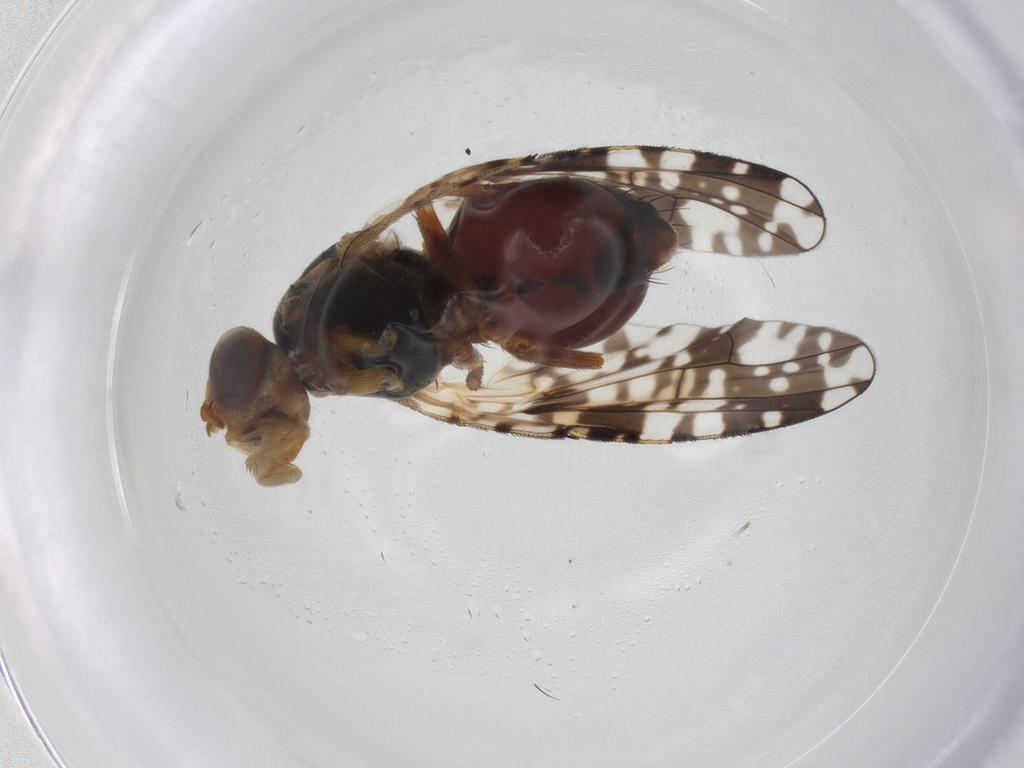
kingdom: Animalia
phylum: Arthropoda
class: Insecta
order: Diptera
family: Tephritidae
